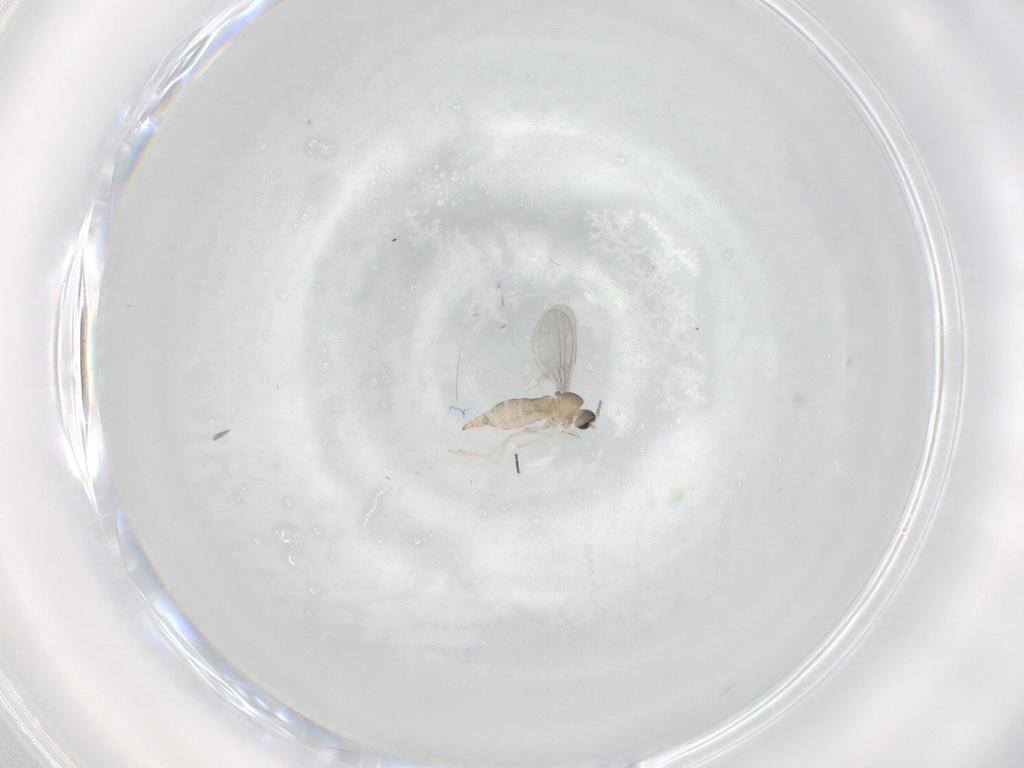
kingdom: Animalia
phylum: Arthropoda
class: Insecta
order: Diptera
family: Cecidomyiidae
